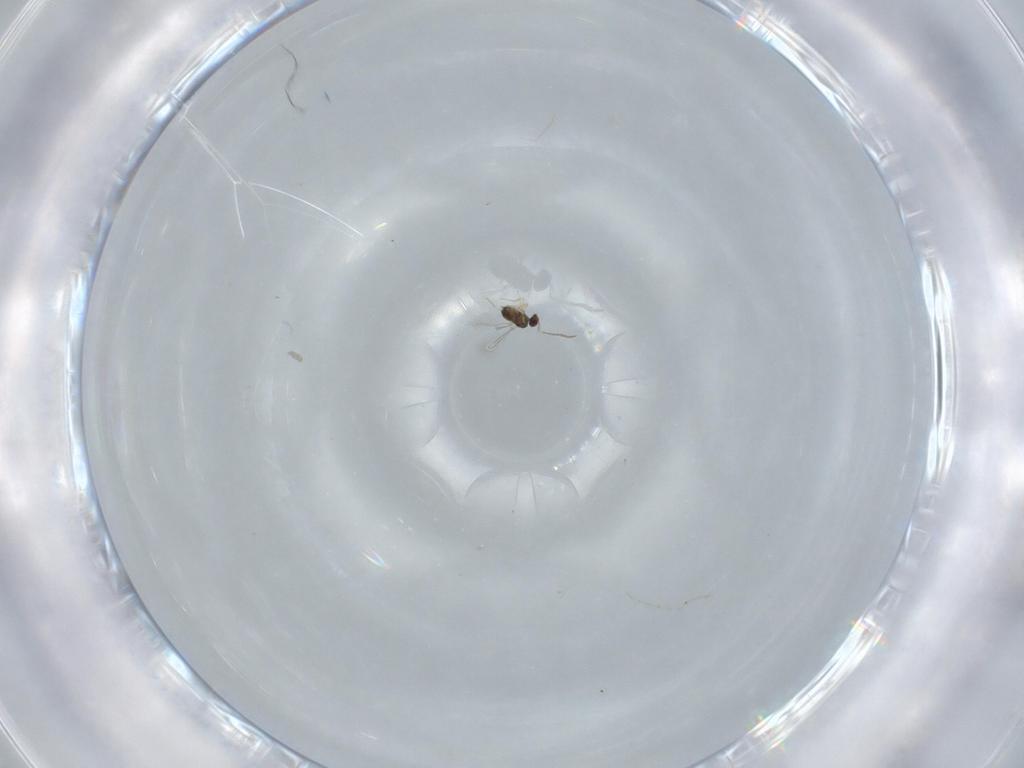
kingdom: Animalia
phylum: Arthropoda
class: Insecta
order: Hymenoptera
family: Mymaridae
